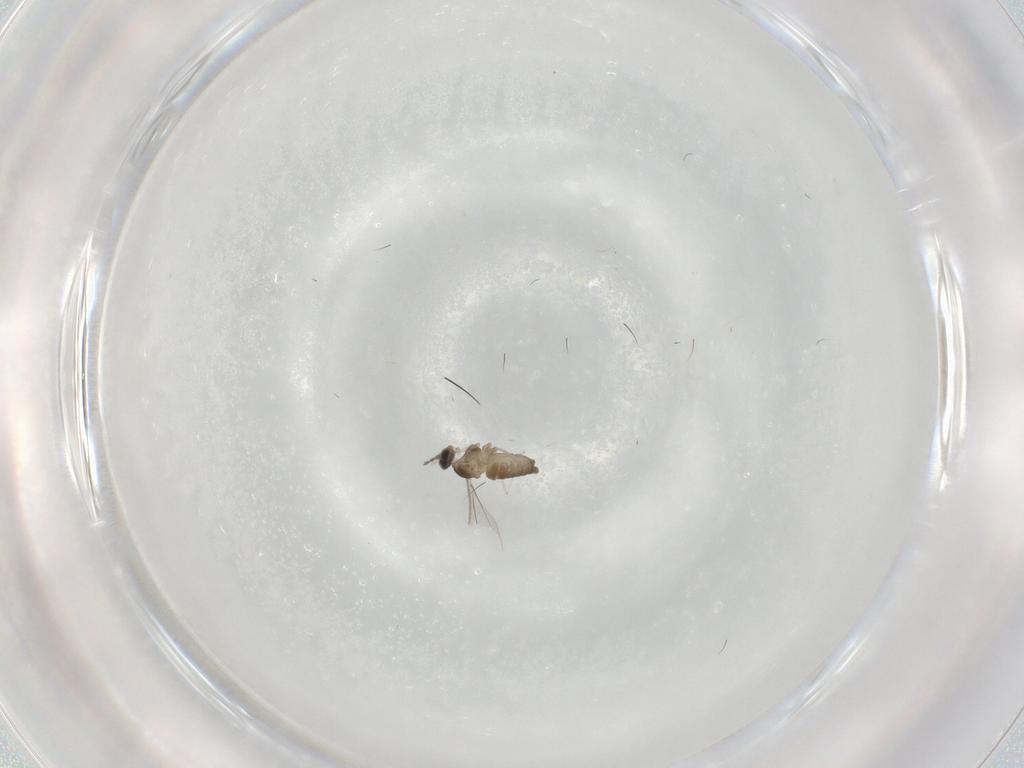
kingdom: Animalia
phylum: Arthropoda
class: Insecta
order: Diptera
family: Cecidomyiidae
